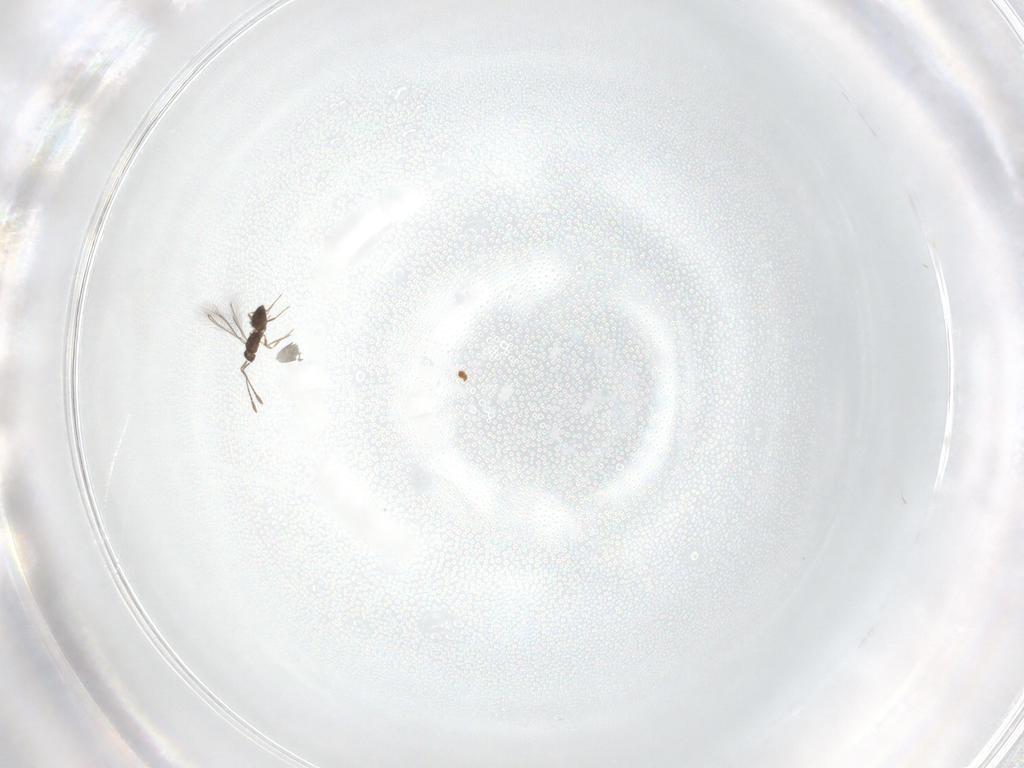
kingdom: Animalia
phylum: Arthropoda
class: Insecta
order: Hymenoptera
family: Mymaridae
